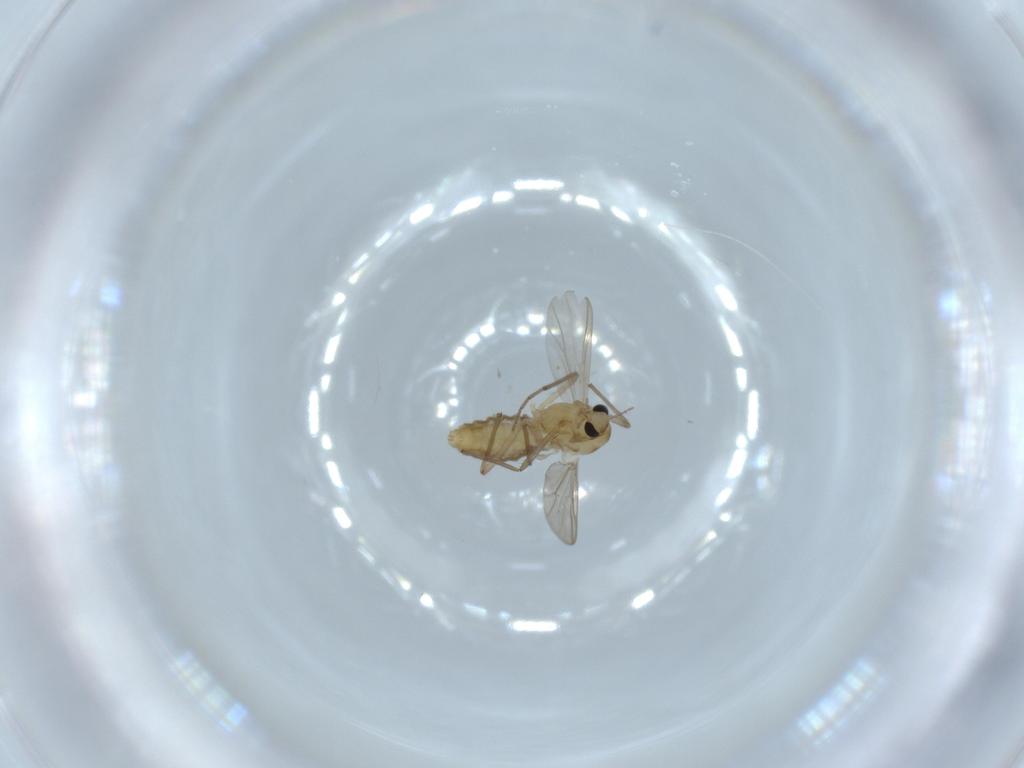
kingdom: Animalia
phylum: Arthropoda
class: Insecta
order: Diptera
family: Chironomidae
